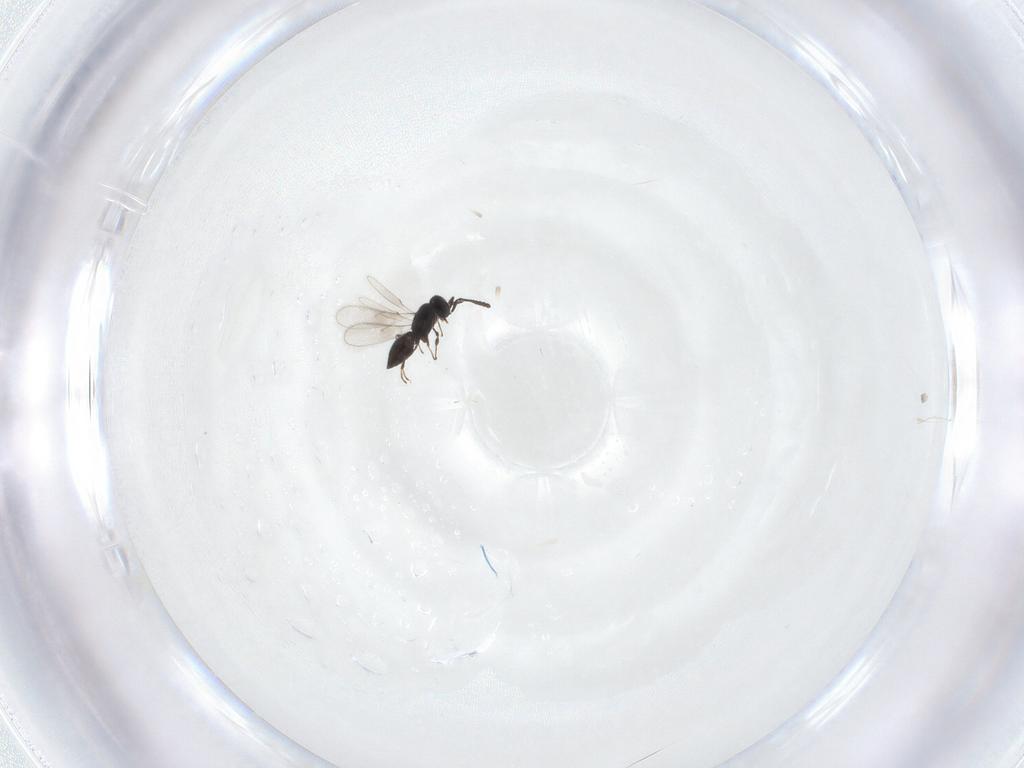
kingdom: Animalia
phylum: Arthropoda
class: Insecta
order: Hymenoptera
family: Scelionidae
